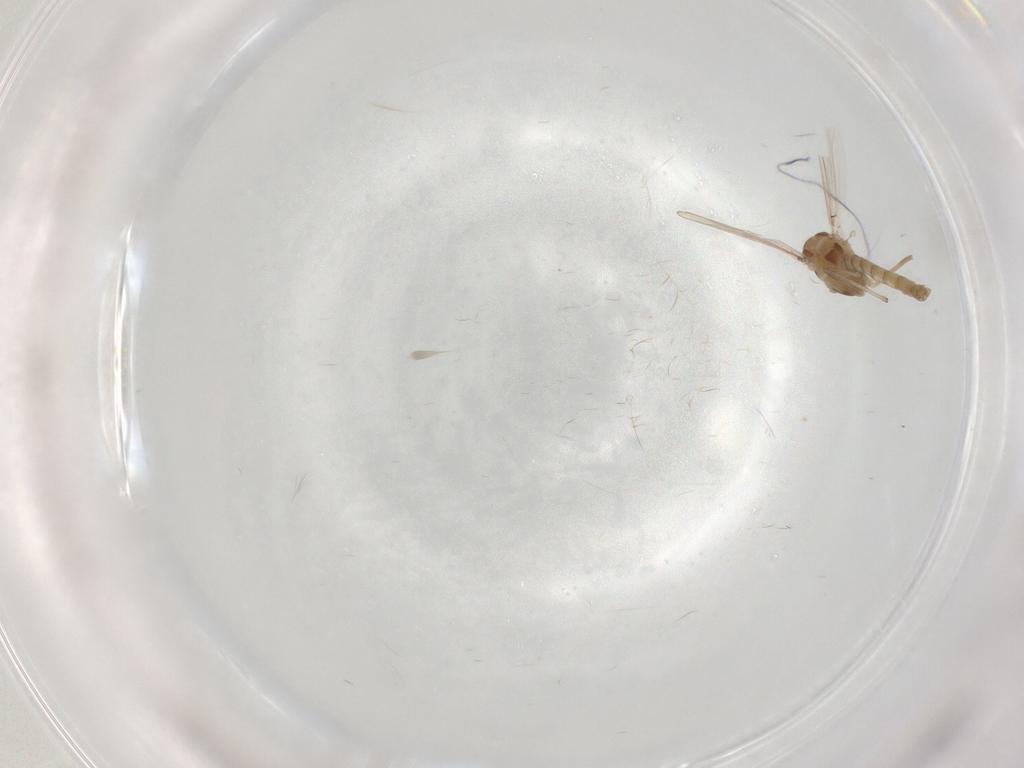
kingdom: Animalia
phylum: Arthropoda
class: Insecta
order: Diptera
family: Chironomidae
